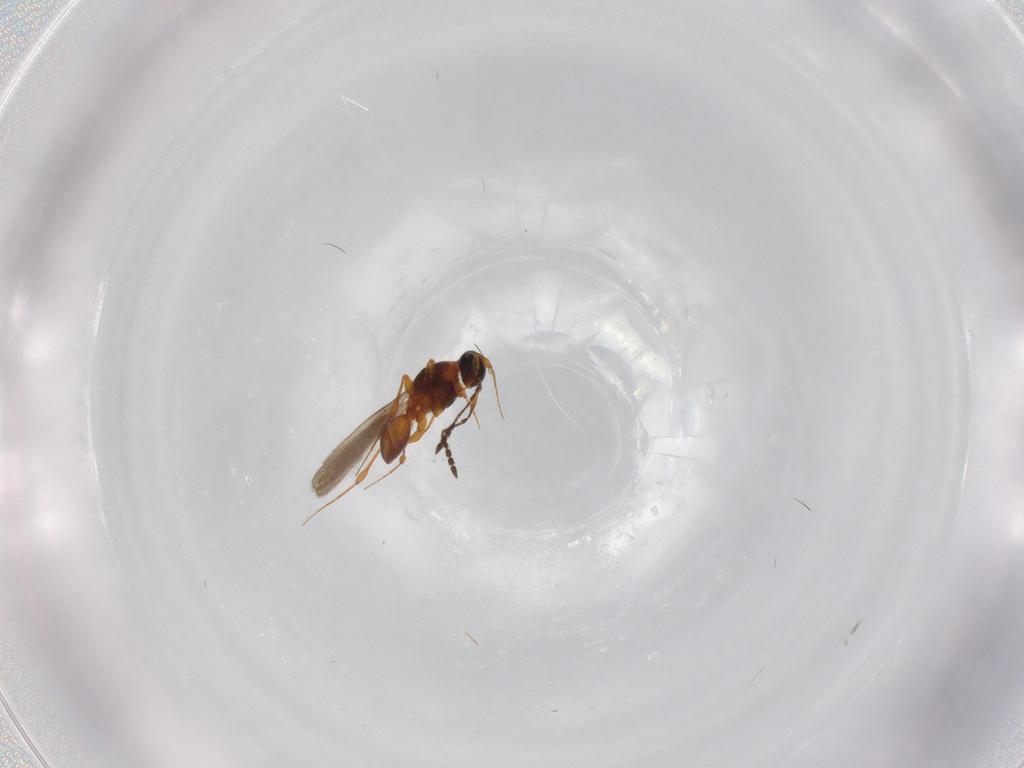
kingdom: Animalia
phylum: Arthropoda
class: Insecta
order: Hymenoptera
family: Platygastridae
